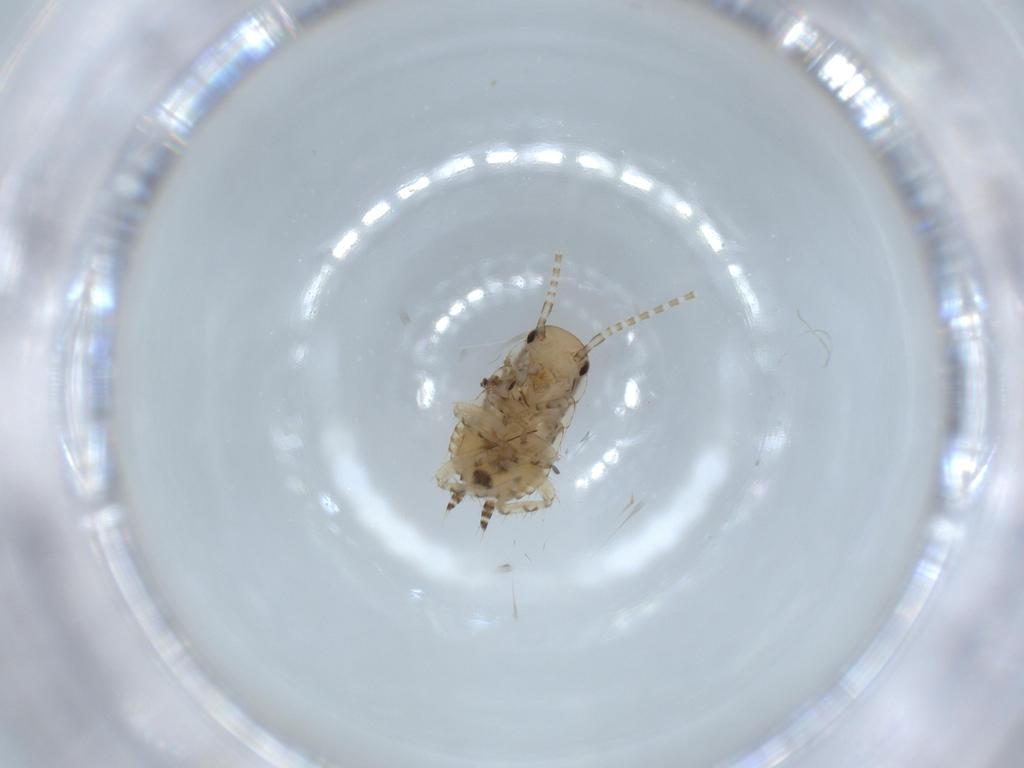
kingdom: Animalia
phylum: Arthropoda
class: Insecta
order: Blattodea
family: Ectobiidae
